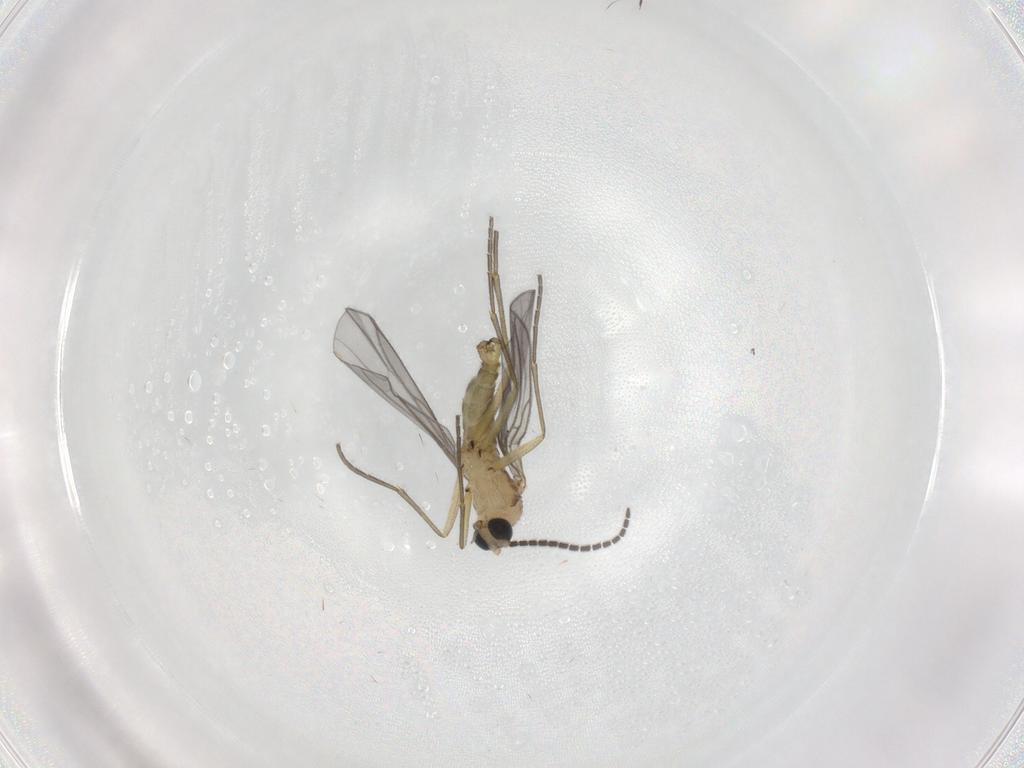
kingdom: Animalia
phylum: Arthropoda
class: Insecta
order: Diptera
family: Sciaridae
